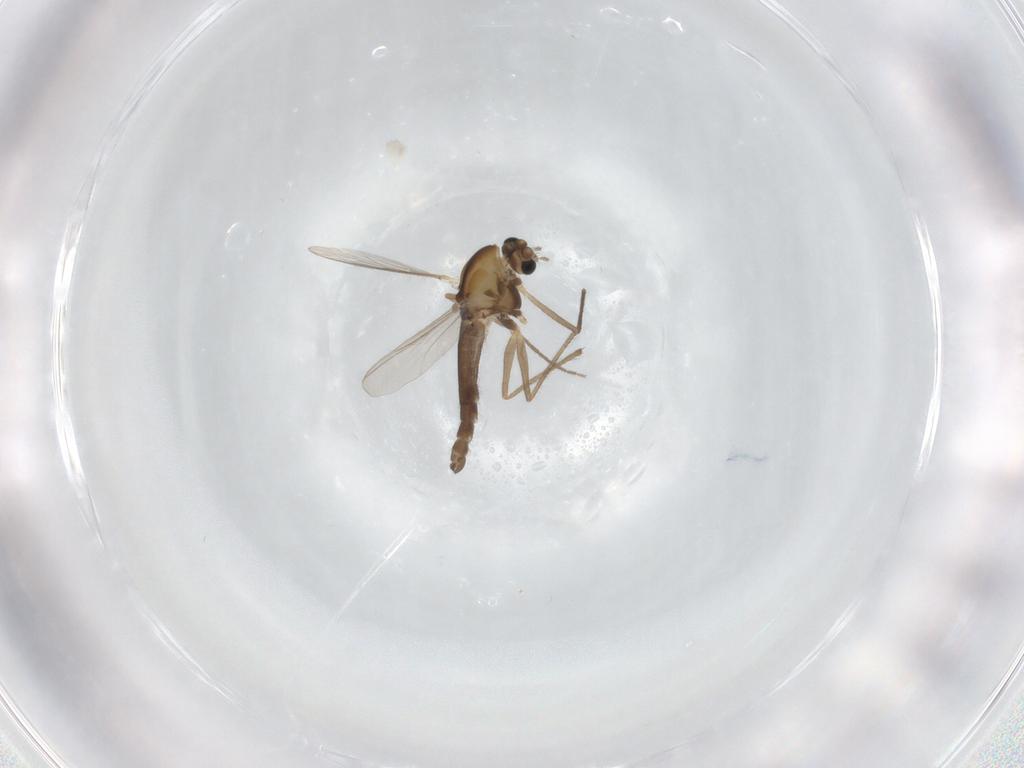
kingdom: Animalia
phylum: Arthropoda
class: Insecta
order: Diptera
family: Chironomidae
